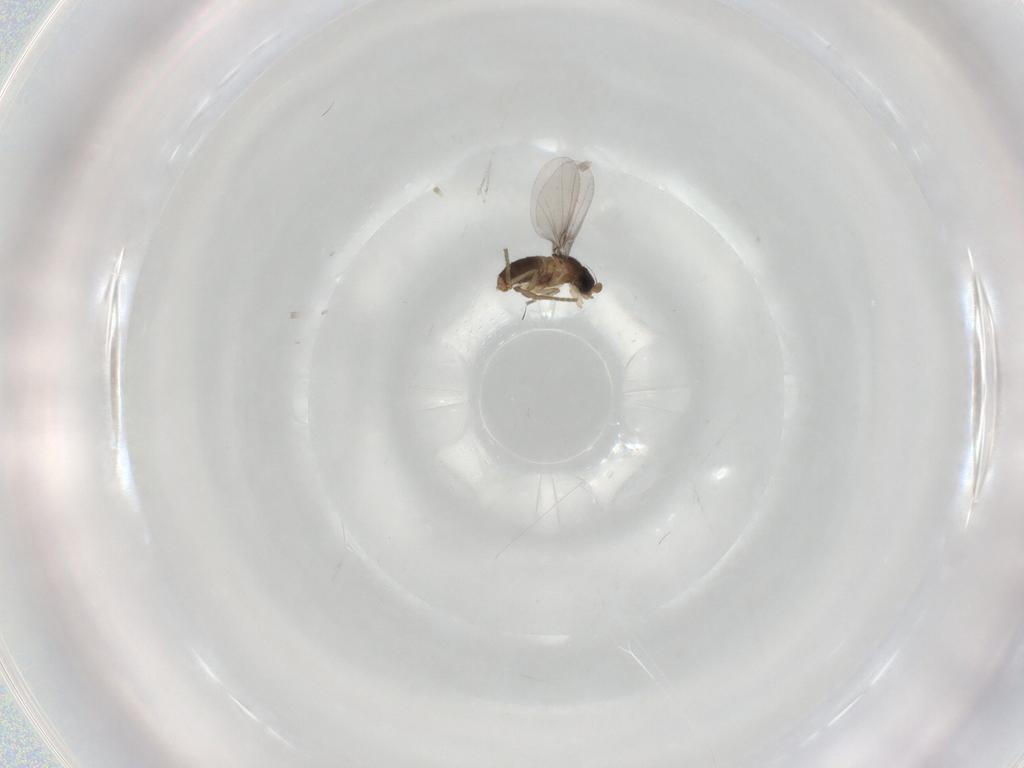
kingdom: Animalia
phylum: Arthropoda
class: Insecta
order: Diptera
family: Phoridae
